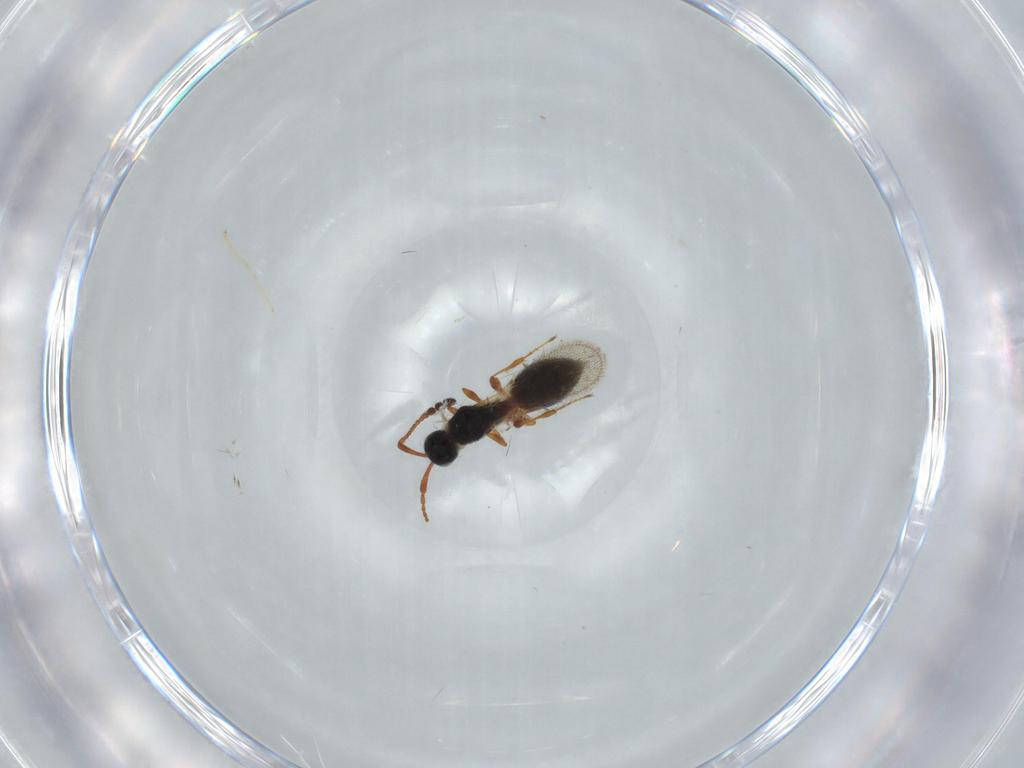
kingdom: Animalia
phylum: Arthropoda
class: Insecta
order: Hymenoptera
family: Diapriidae
